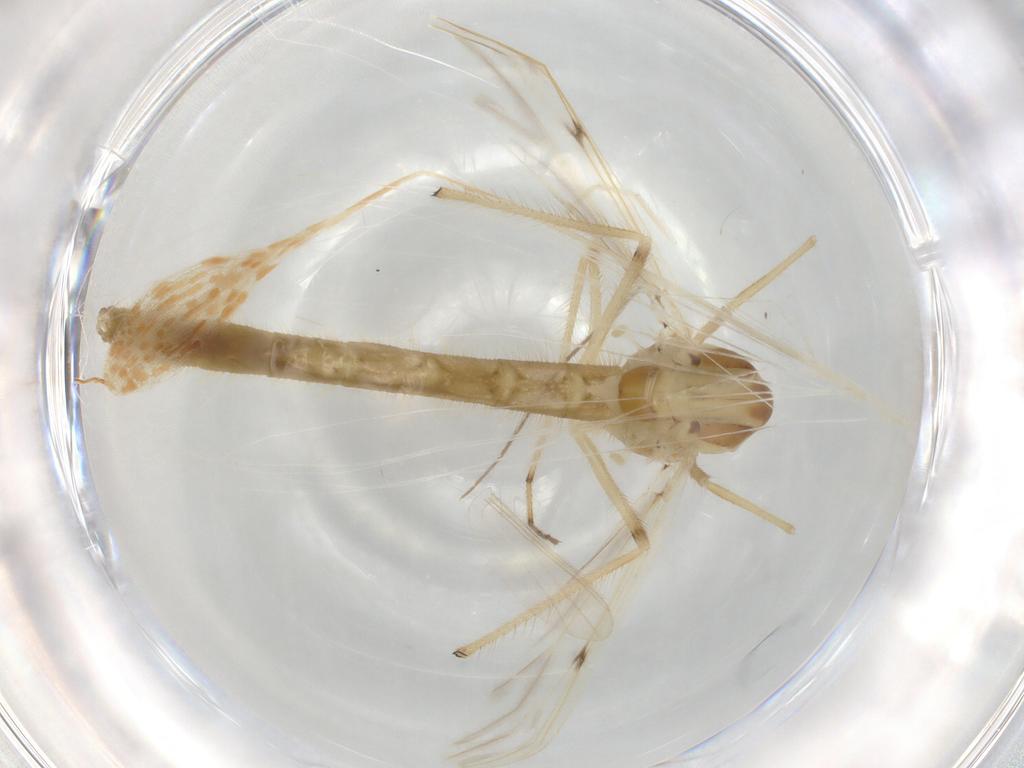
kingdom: Animalia
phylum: Arthropoda
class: Insecta
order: Diptera
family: Chironomidae
